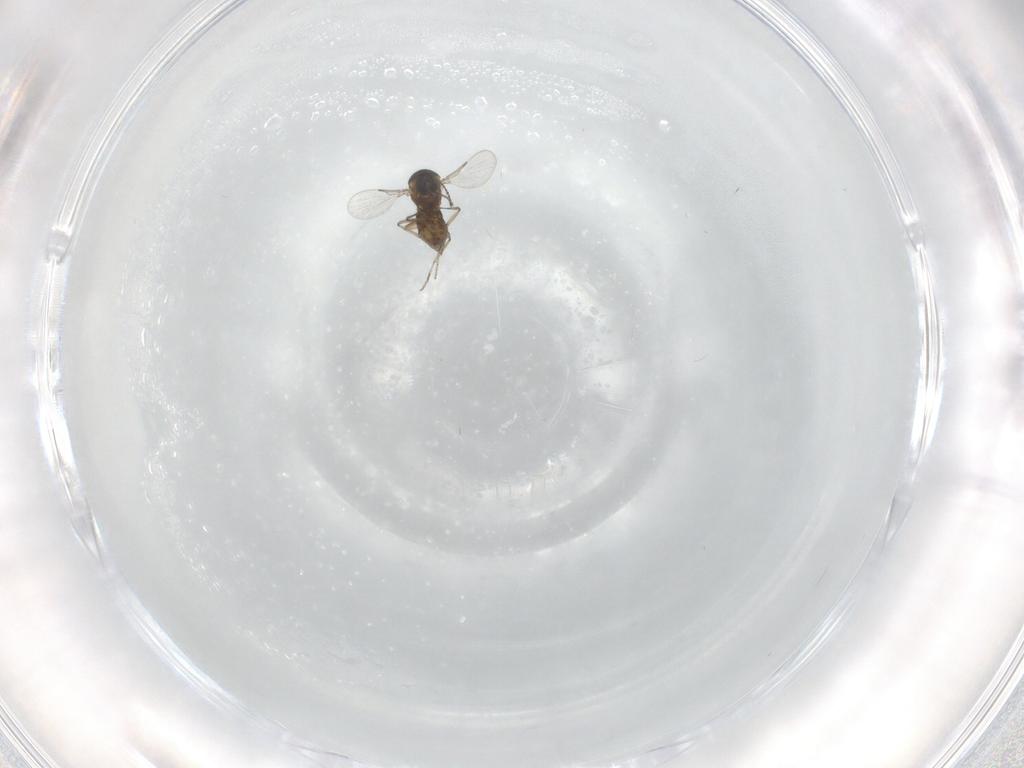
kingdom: Animalia
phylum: Arthropoda
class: Insecta
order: Diptera
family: Ceratopogonidae
